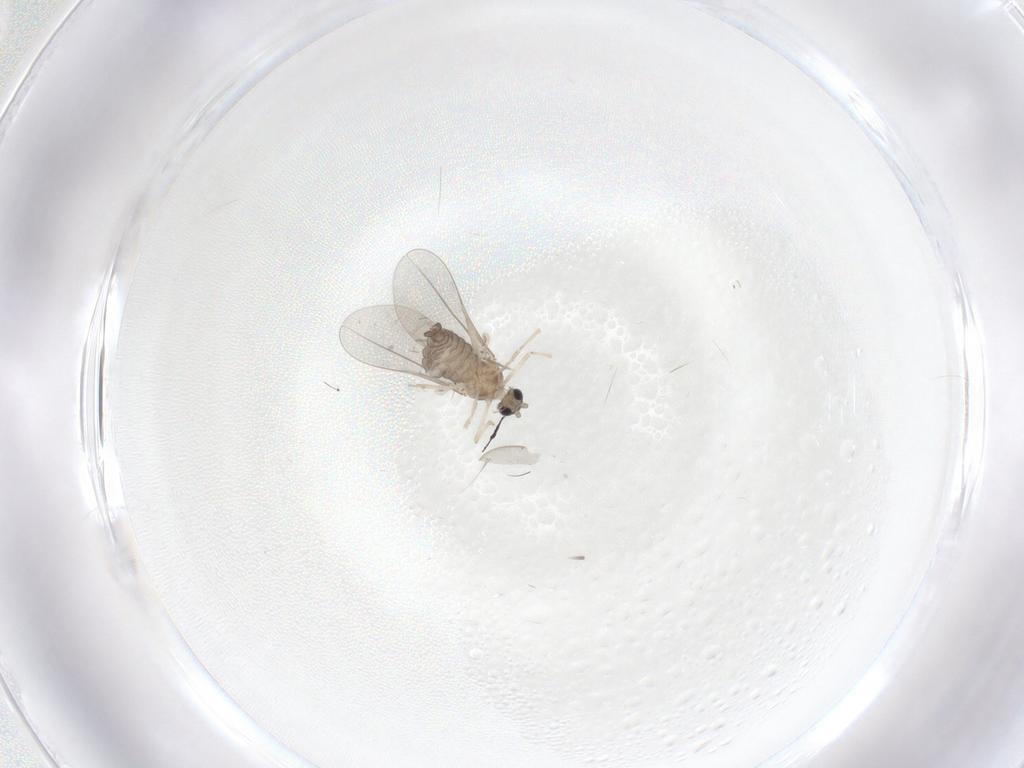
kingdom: Animalia
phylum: Arthropoda
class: Insecta
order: Diptera
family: Cecidomyiidae
